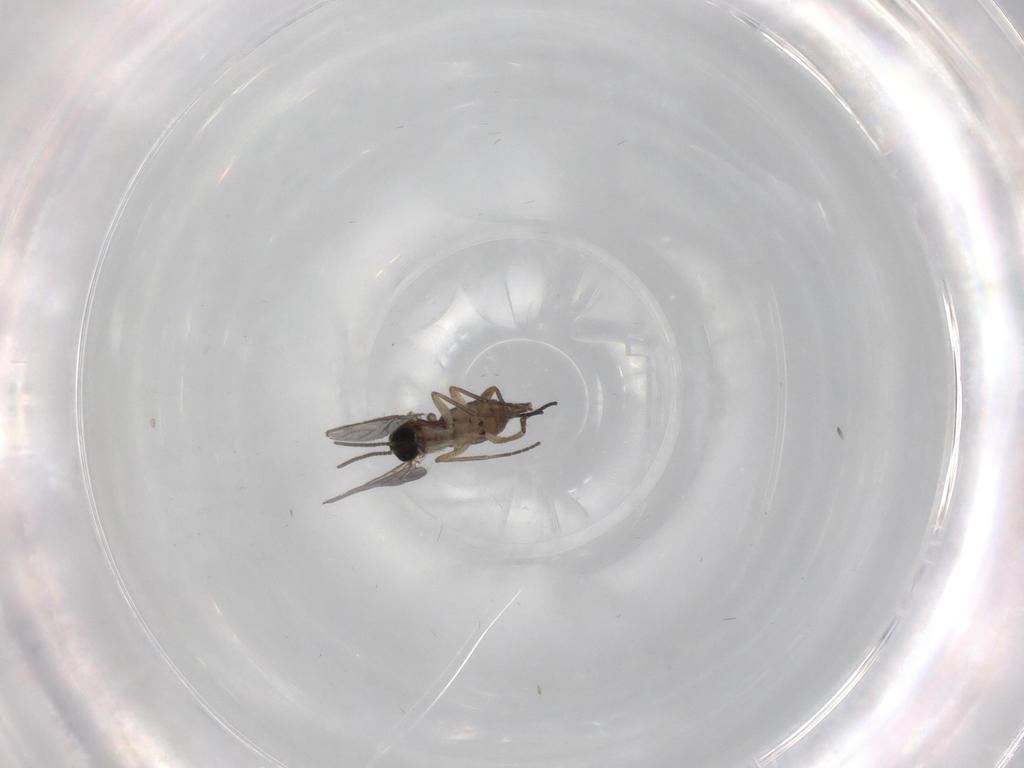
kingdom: Animalia
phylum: Arthropoda
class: Insecta
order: Diptera
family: Sciaridae
